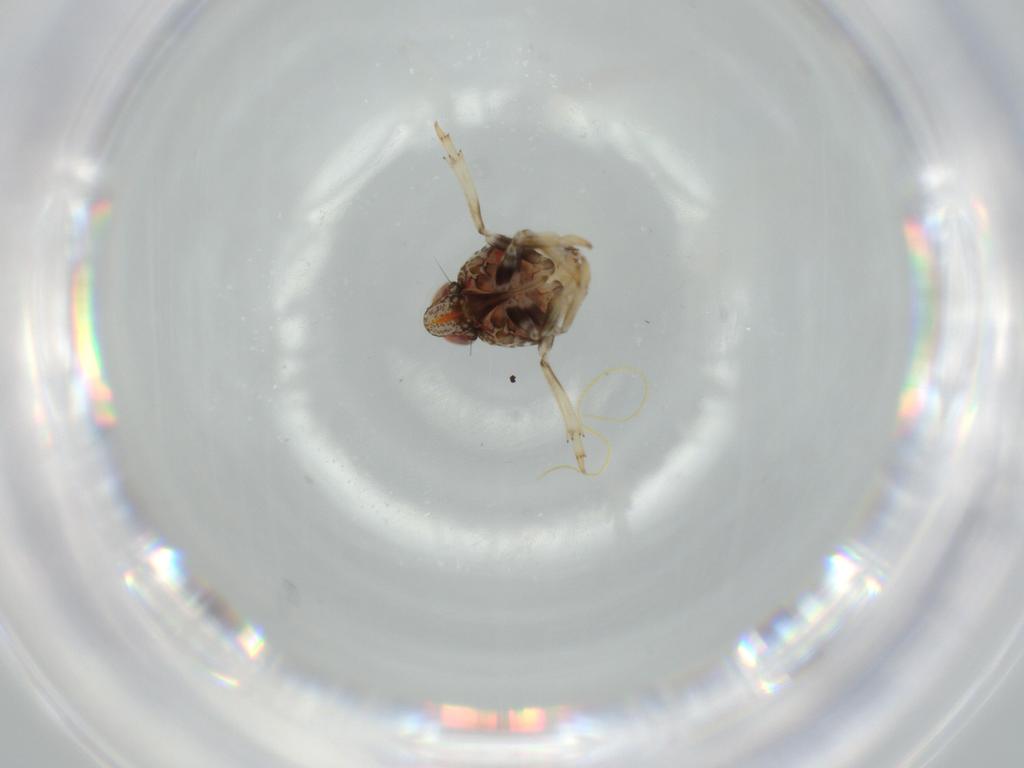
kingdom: Animalia
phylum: Arthropoda
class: Insecta
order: Hemiptera
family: Issidae
